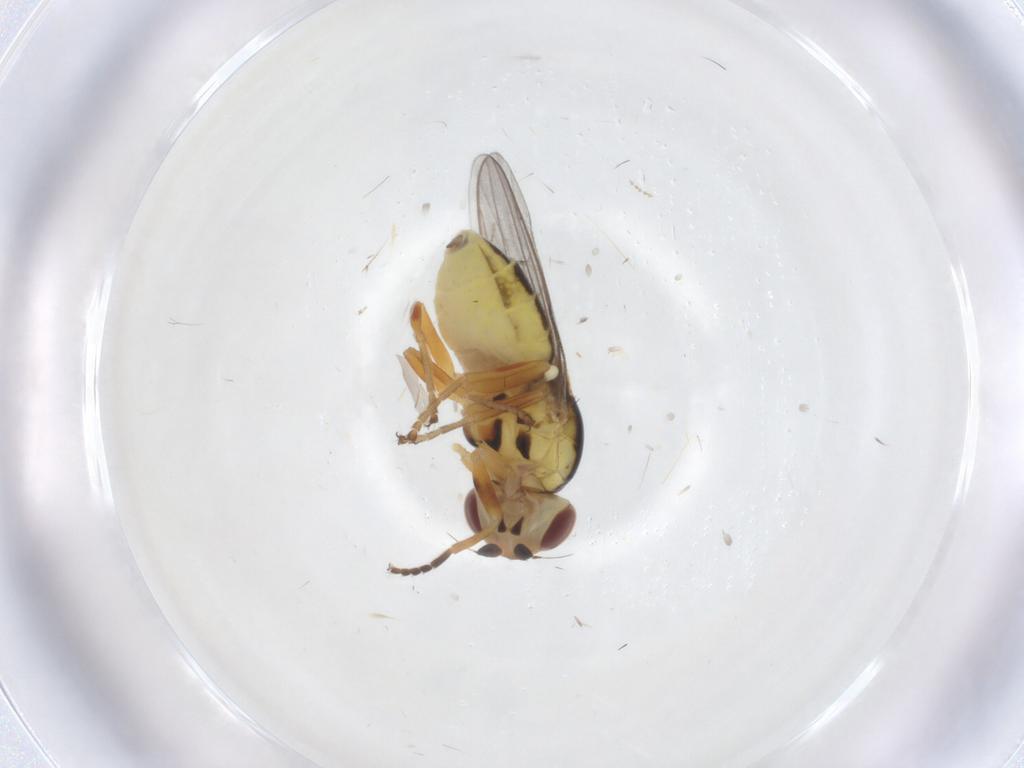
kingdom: Animalia
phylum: Arthropoda
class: Insecta
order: Diptera
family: Chloropidae
